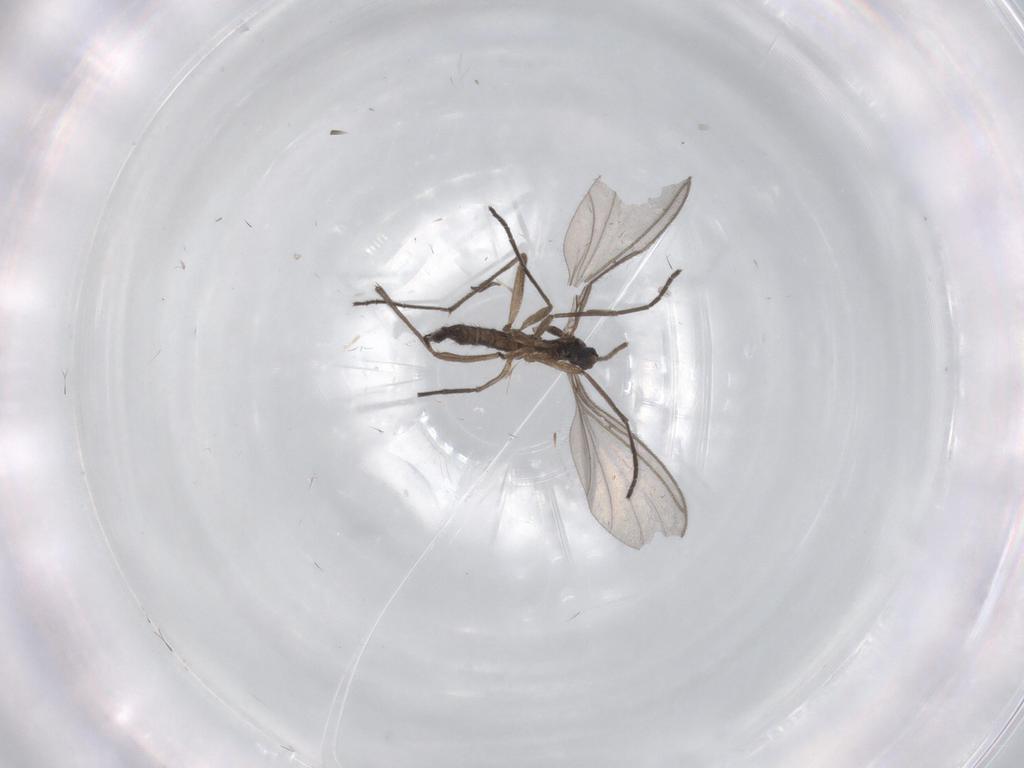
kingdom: Animalia
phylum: Arthropoda
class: Insecta
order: Diptera
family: Sciaridae
